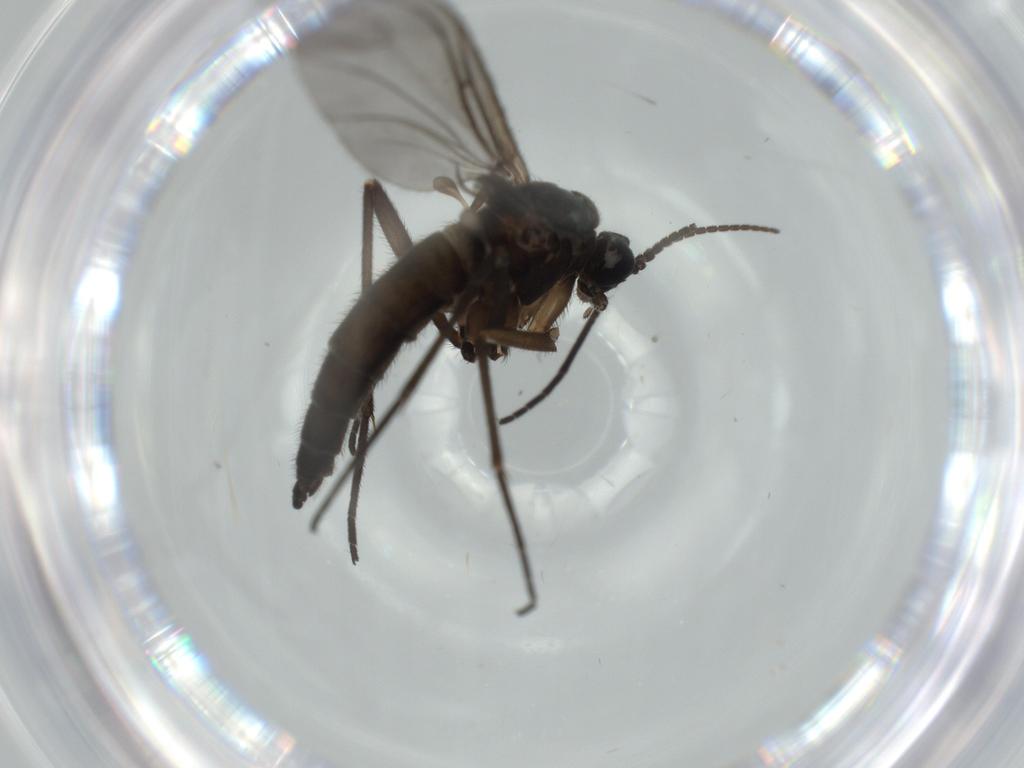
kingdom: Animalia
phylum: Arthropoda
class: Insecta
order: Diptera
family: Sciaridae
